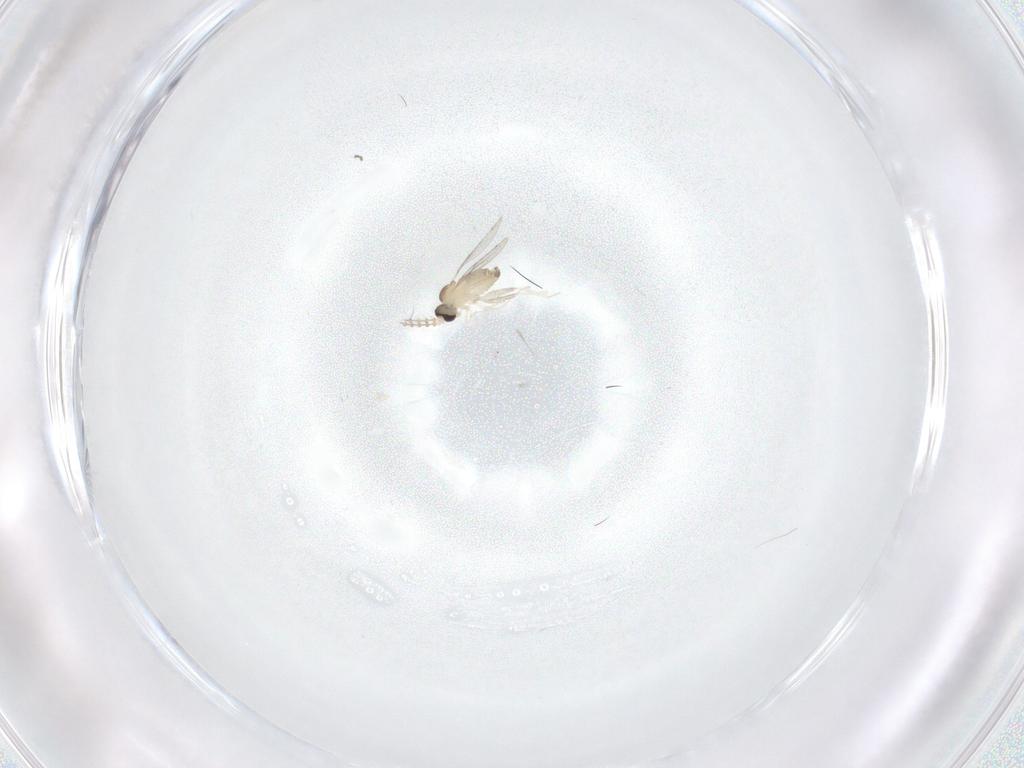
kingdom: Animalia
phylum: Arthropoda
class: Insecta
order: Diptera
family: Cecidomyiidae
